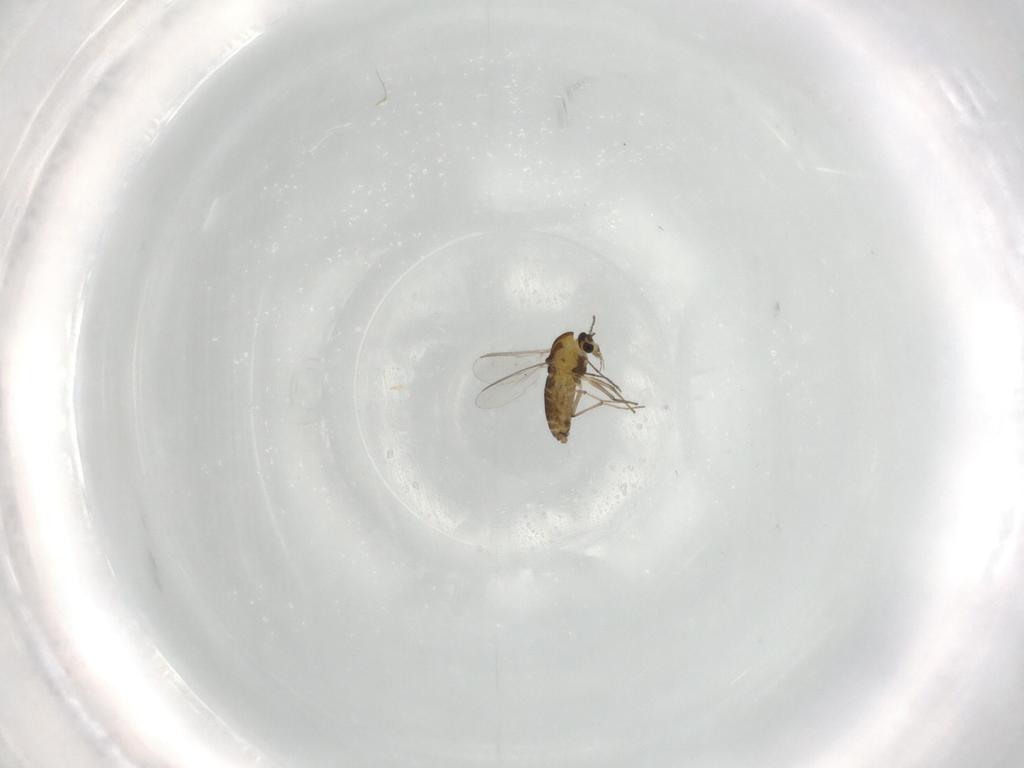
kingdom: Animalia
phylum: Arthropoda
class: Insecta
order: Diptera
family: Chironomidae
